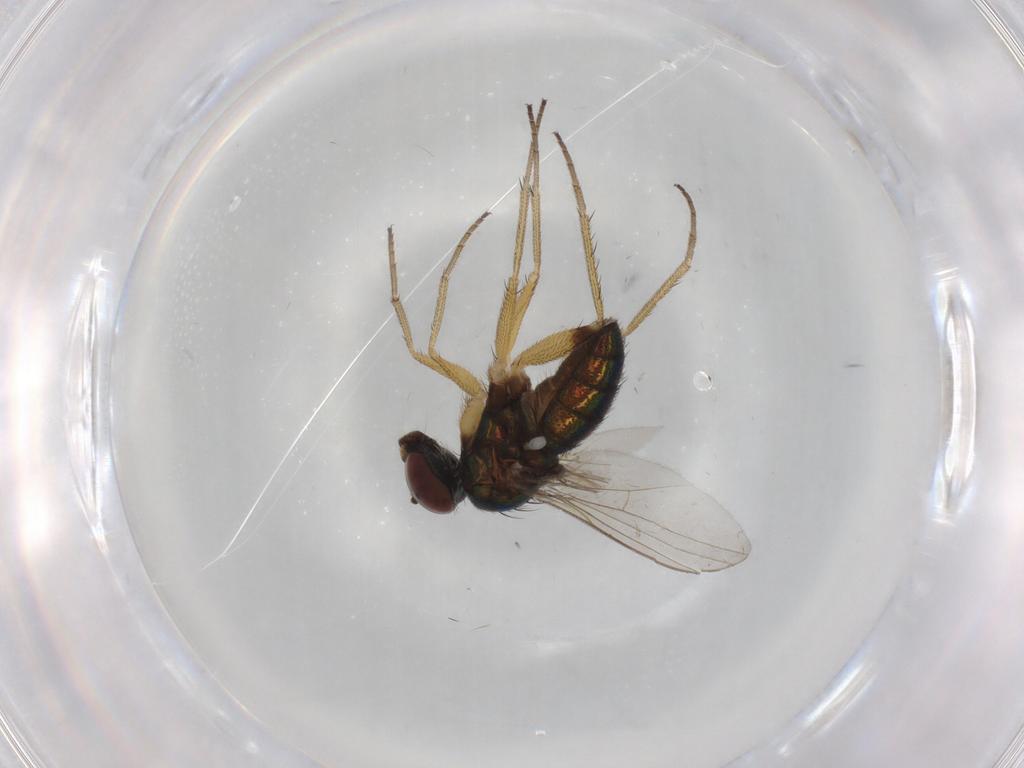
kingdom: Animalia
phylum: Arthropoda
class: Insecta
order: Diptera
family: Dolichopodidae
